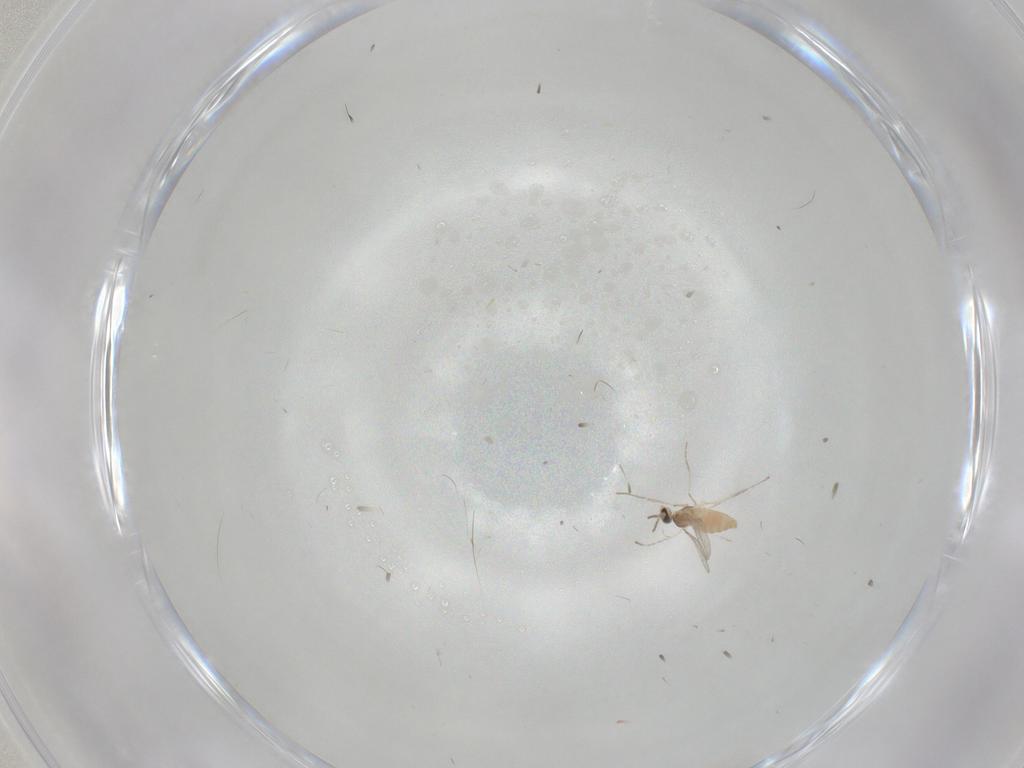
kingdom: Animalia
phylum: Arthropoda
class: Insecta
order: Diptera
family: Cecidomyiidae
